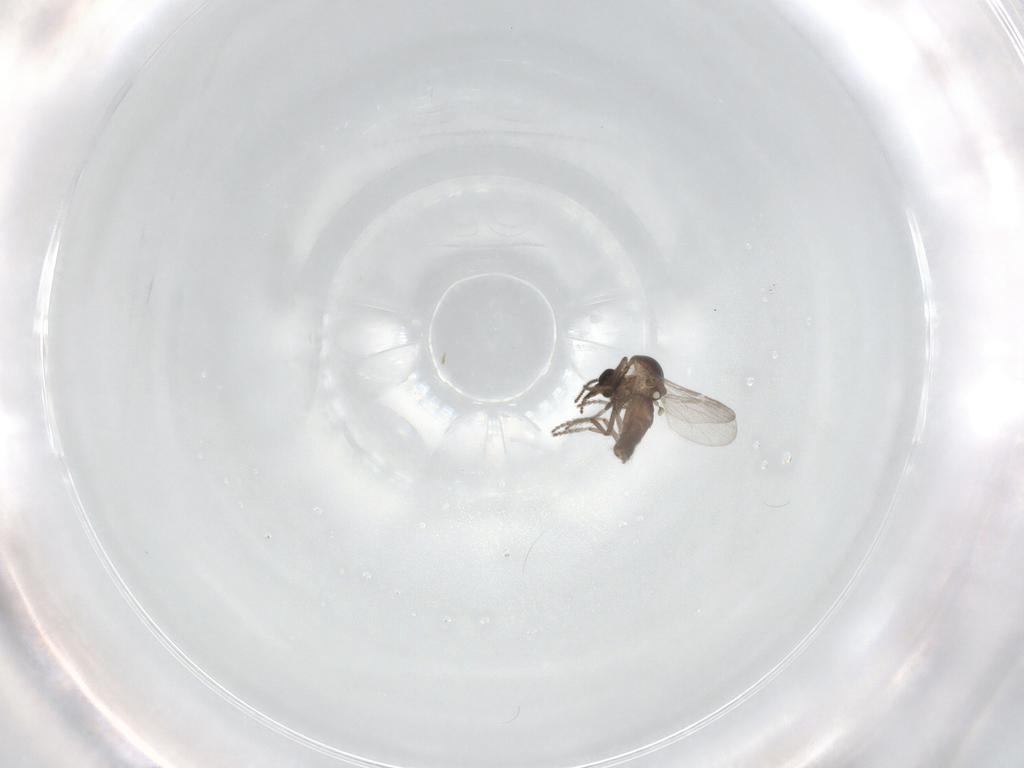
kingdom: Animalia
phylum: Arthropoda
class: Insecta
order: Diptera
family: Ceratopogonidae
